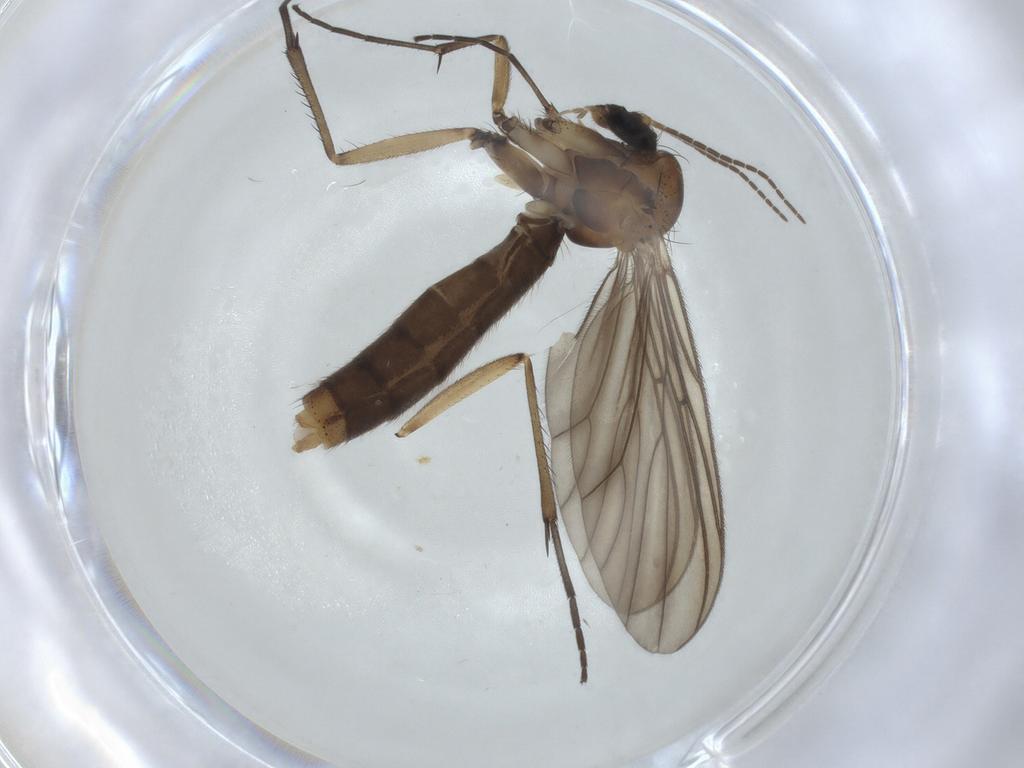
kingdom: Animalia
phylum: Arthropoda
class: Insecta
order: Diptera
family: Mycetophilidae
